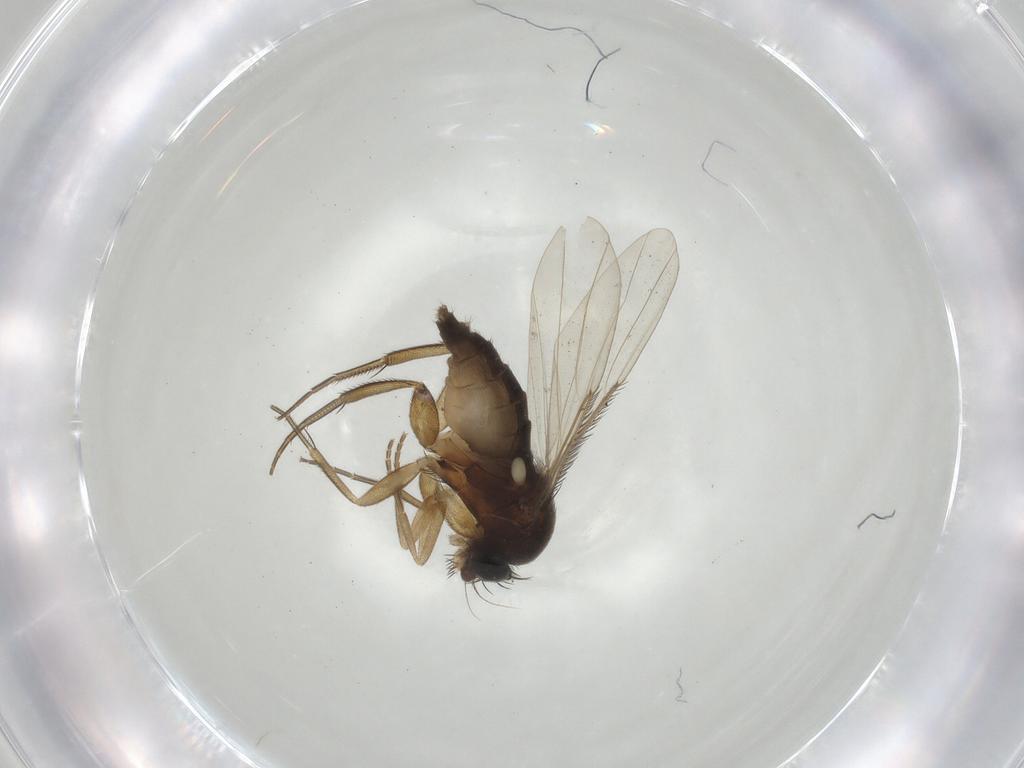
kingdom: Animalia
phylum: Arthropoda
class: Insecta
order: Diptera
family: Phoridae
